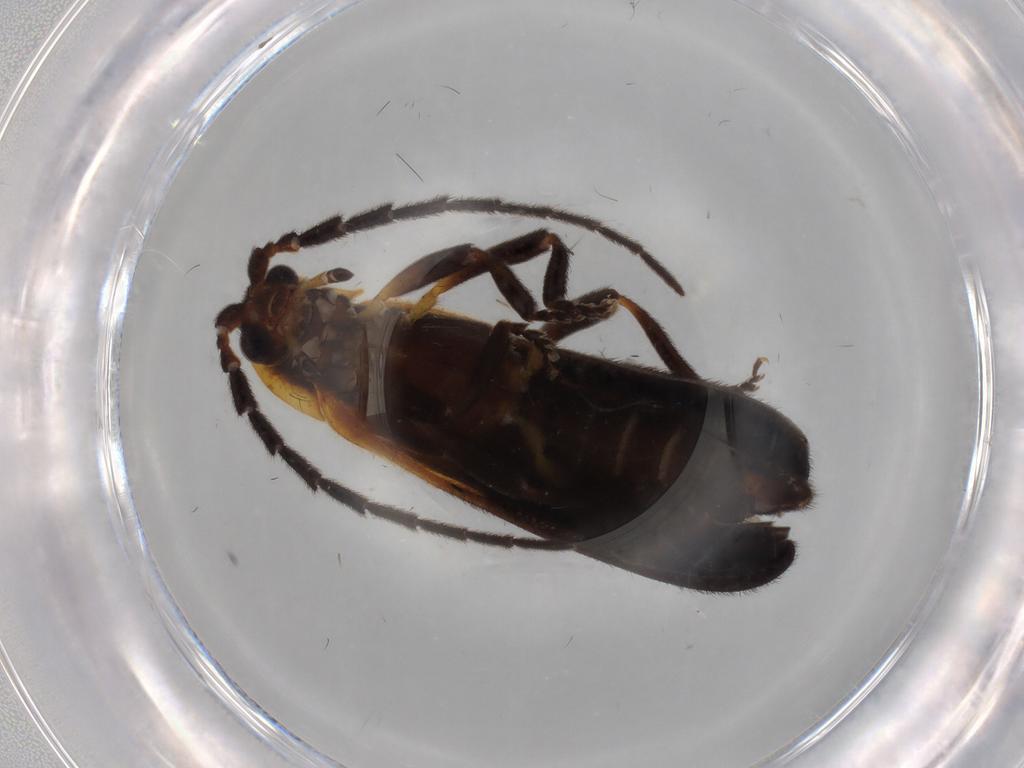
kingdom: Animalia
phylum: Arthropoda
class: Insecta
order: Coleoptera
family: Lycidae
